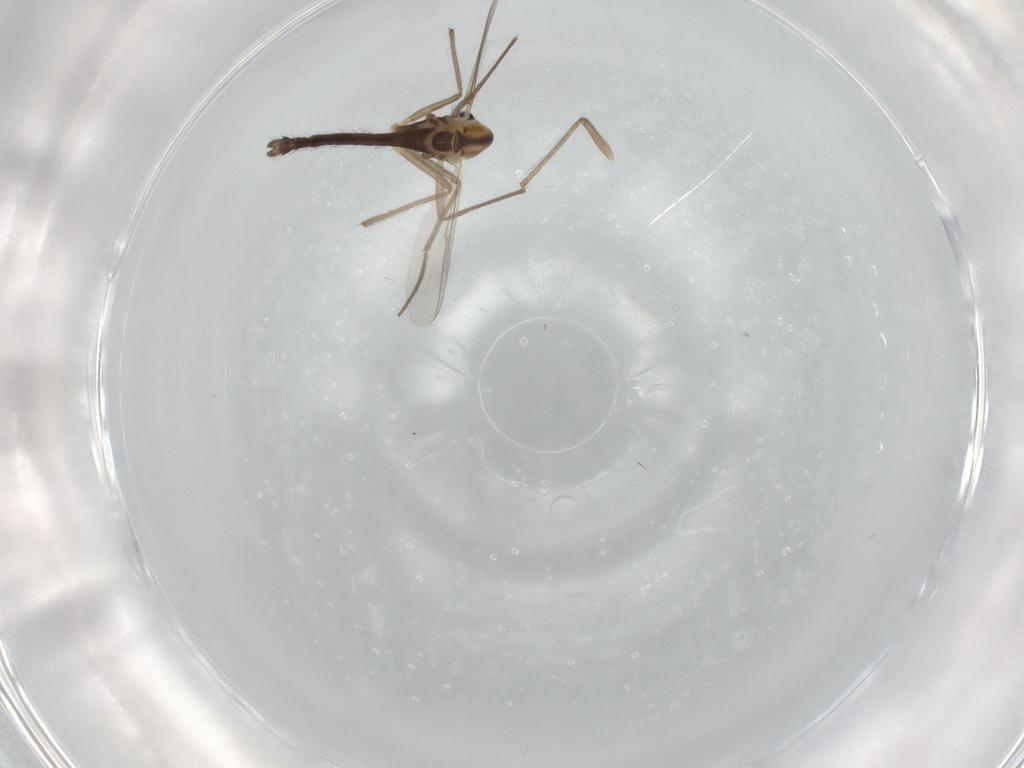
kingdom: Animalia
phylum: Arthropoda
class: Insecta
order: Diptera
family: Chironomidae
